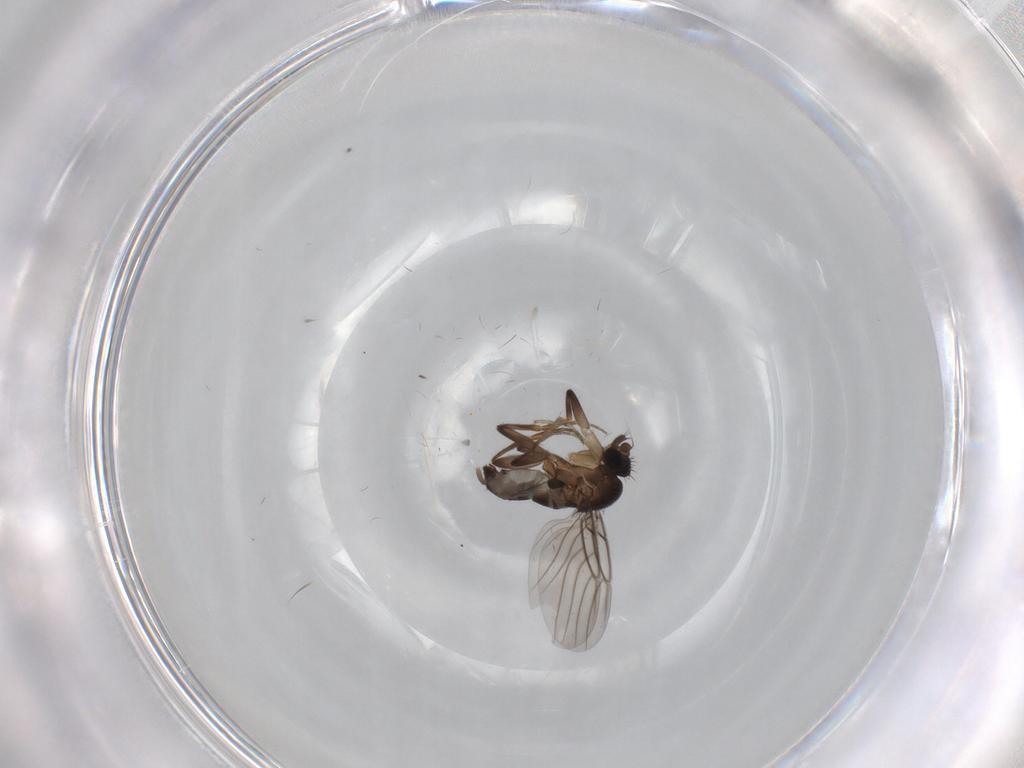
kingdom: Animalia
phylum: Arthropoda
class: Insecta
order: Diptera
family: Phoridae
